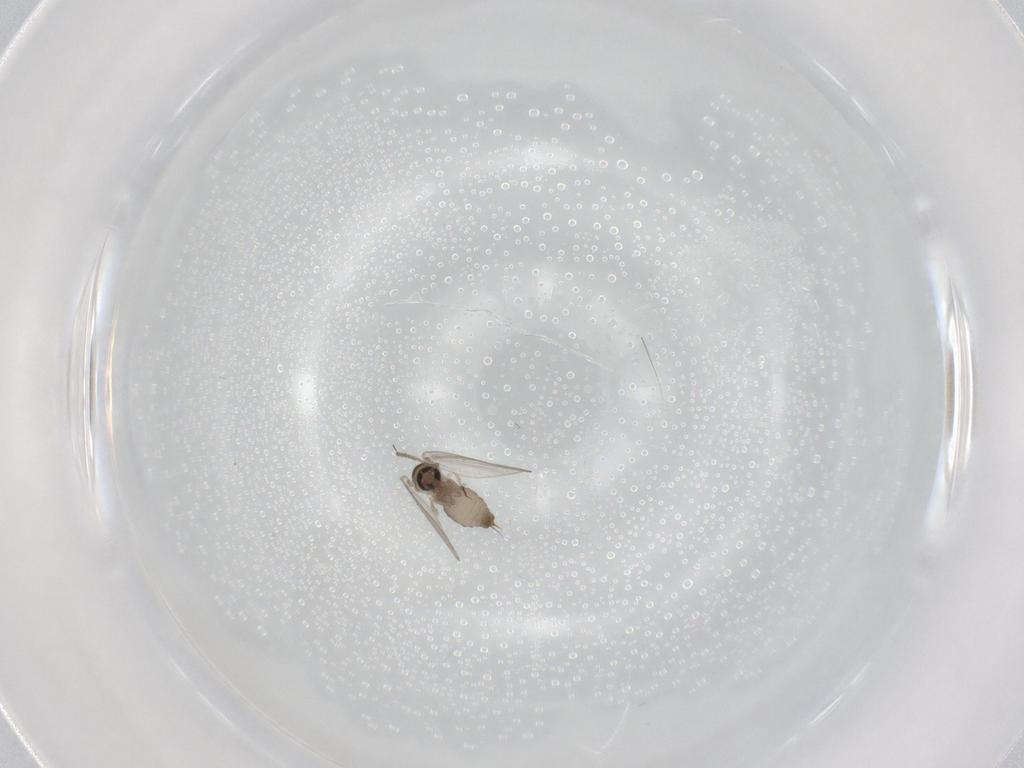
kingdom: Animalia
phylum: Arthropoda
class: Insecta
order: Diptera
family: Psychodidae
